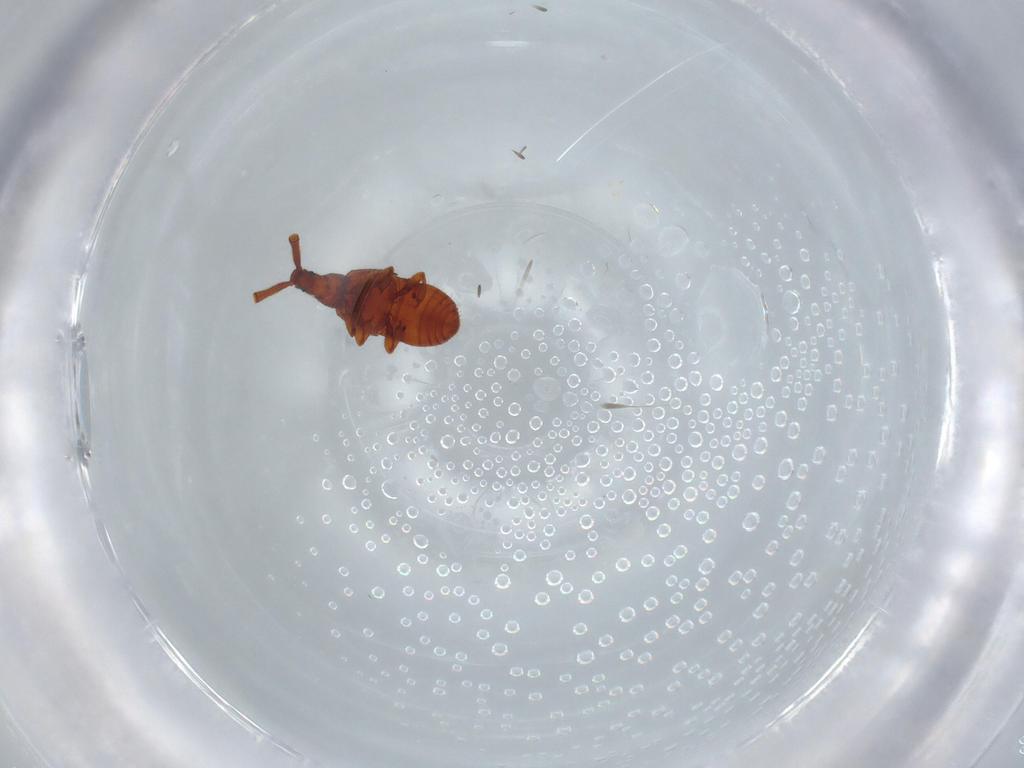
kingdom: Animalia
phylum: Arthropoda
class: Insecta
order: Coleoptera
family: Staphylinidae
